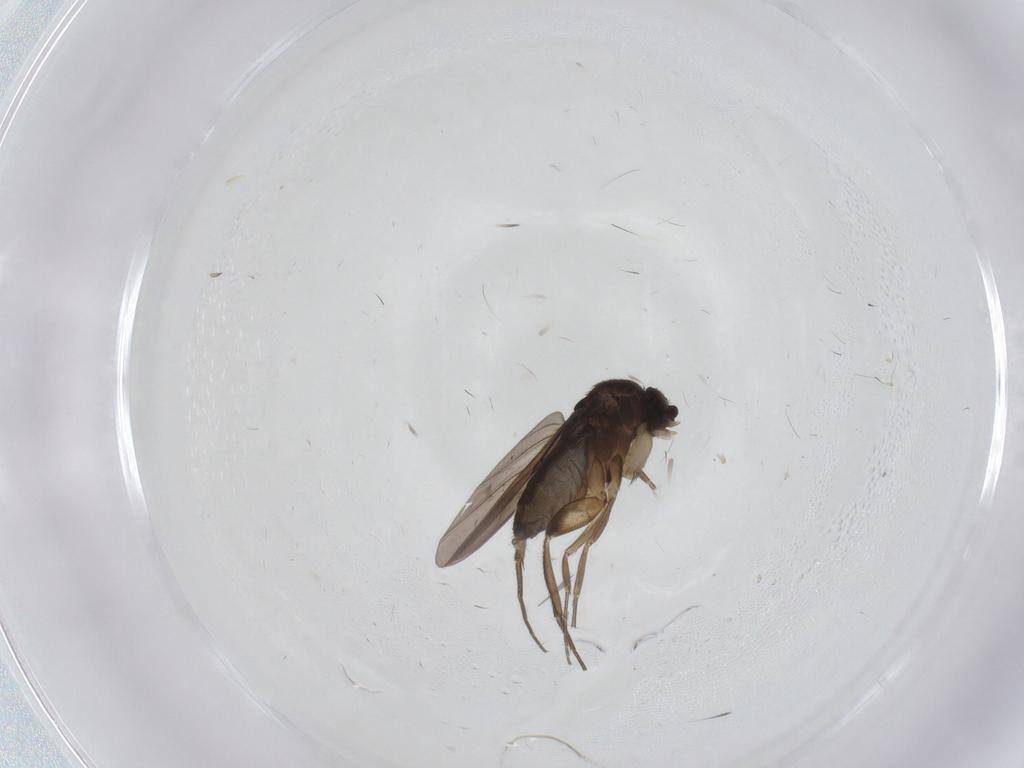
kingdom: Animalia
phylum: Arthropoda
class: Insecta
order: Diptera
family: Phoridae
